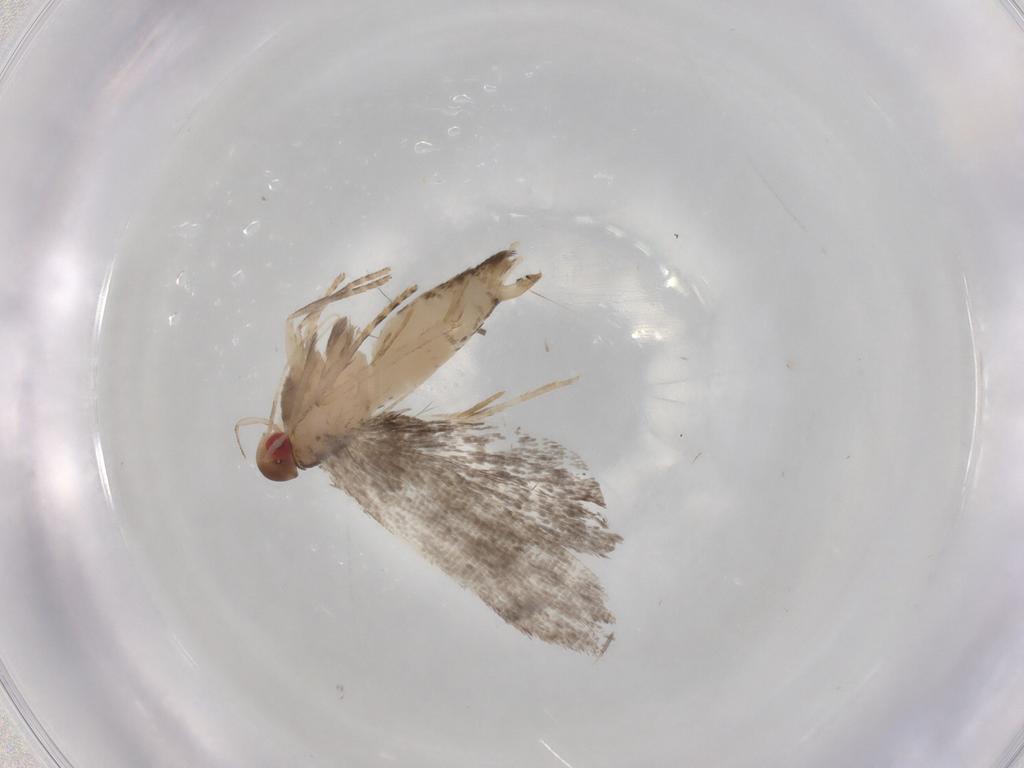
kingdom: Animalia
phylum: Arthropoda
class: Insecta
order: Lepidoptera
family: Gelechiidae
